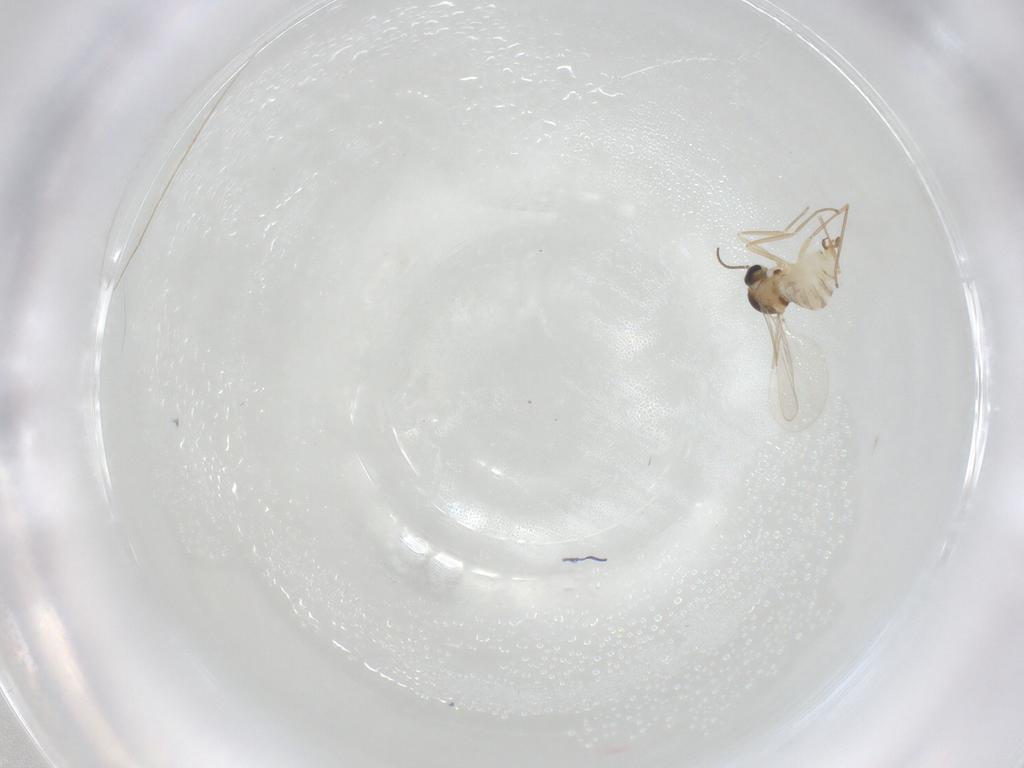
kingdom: Animalia
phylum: Arthropoda
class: Insecta
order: Diptera
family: Cecidomyiidae
